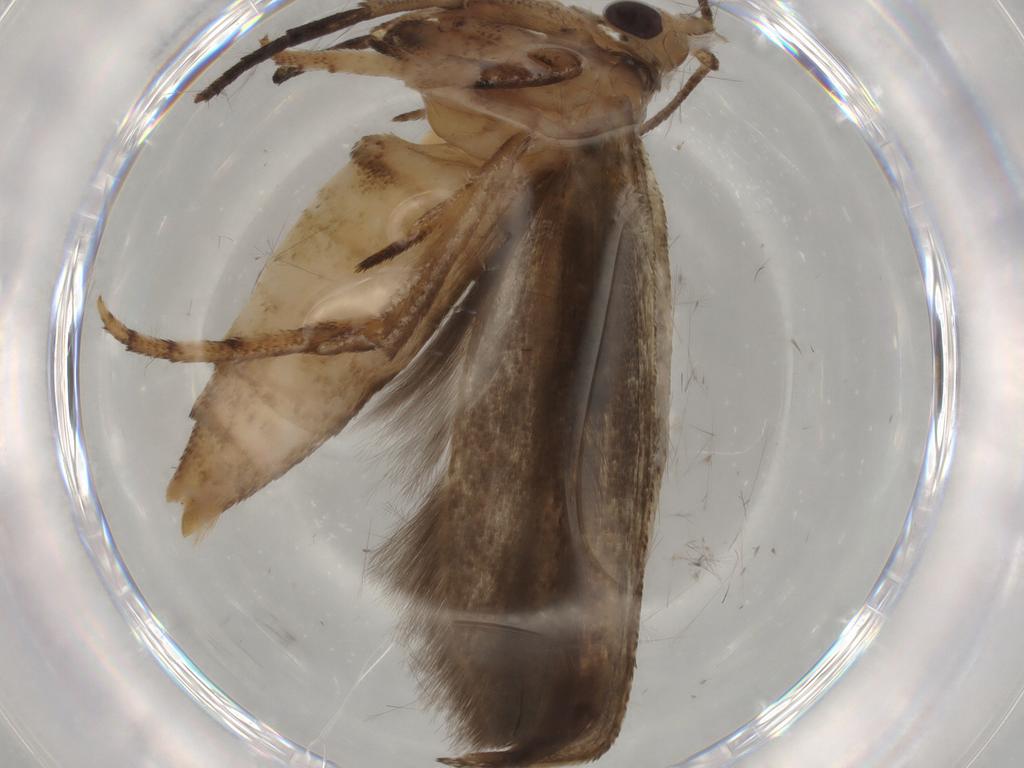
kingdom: Animalia
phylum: Arthropoda
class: Insecta
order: Lepidoptera
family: Yponomeutidae
